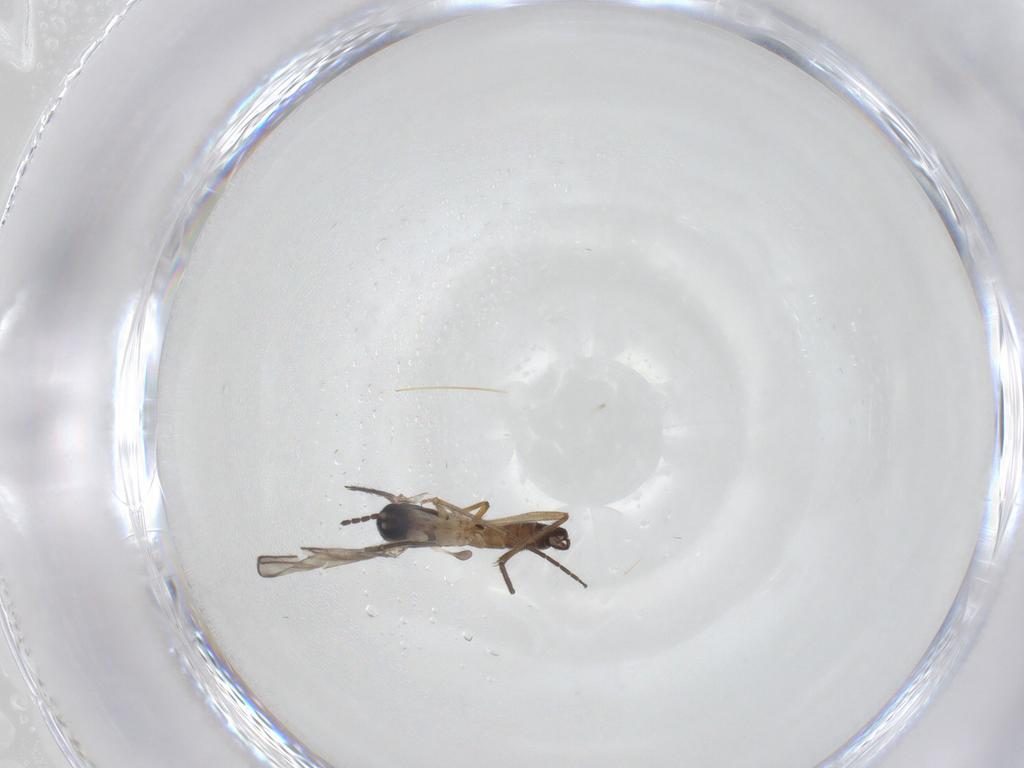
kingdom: Animalia
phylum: Arthropoda
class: Insecta
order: Diptera
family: Sciaridae
